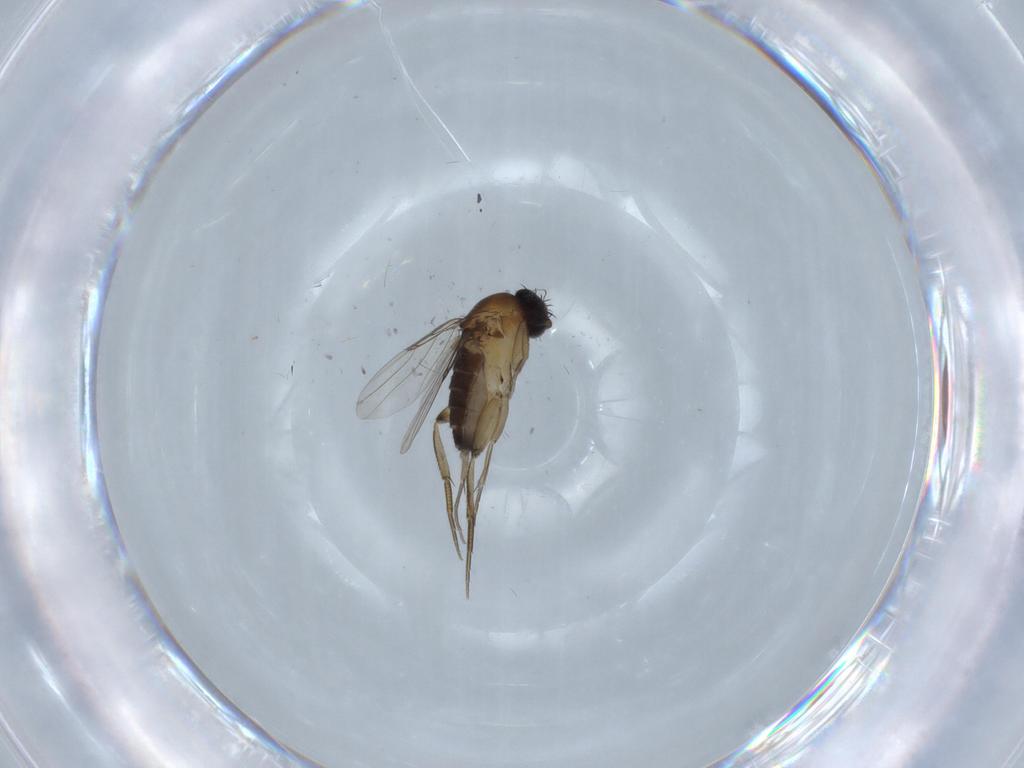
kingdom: Animalia
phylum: Arthropoda
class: Insecta
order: Diptera
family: Phoridae
